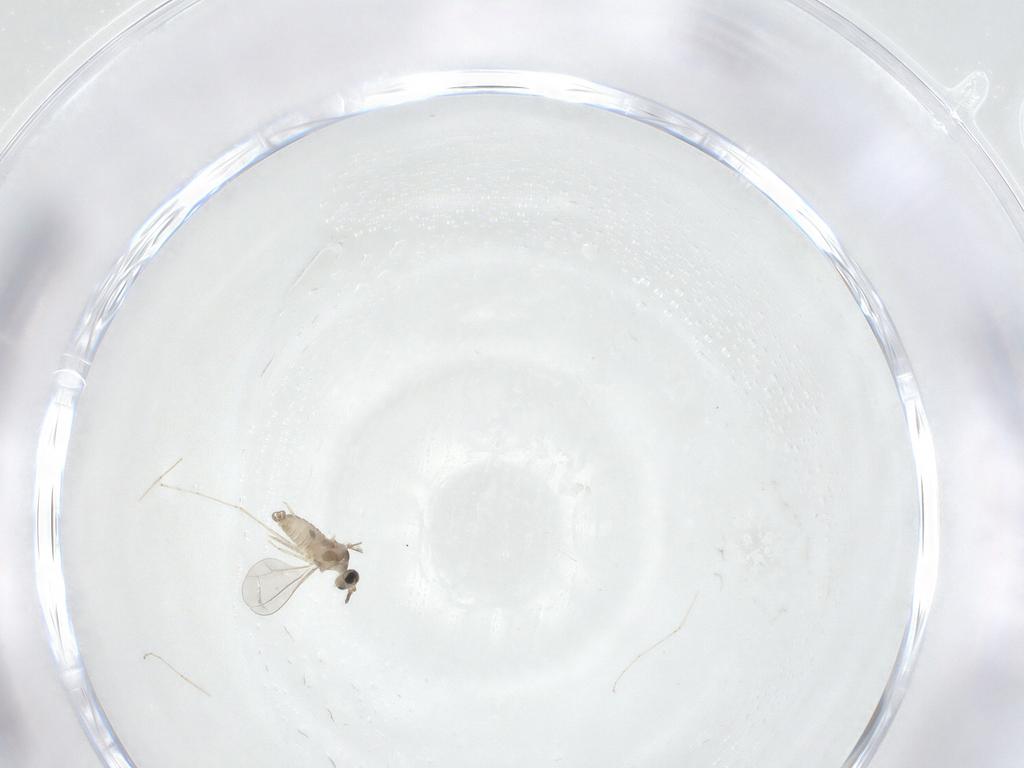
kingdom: Animalia
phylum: Arthropoda
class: Insecta
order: Diptera
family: Cecidomyiidae
